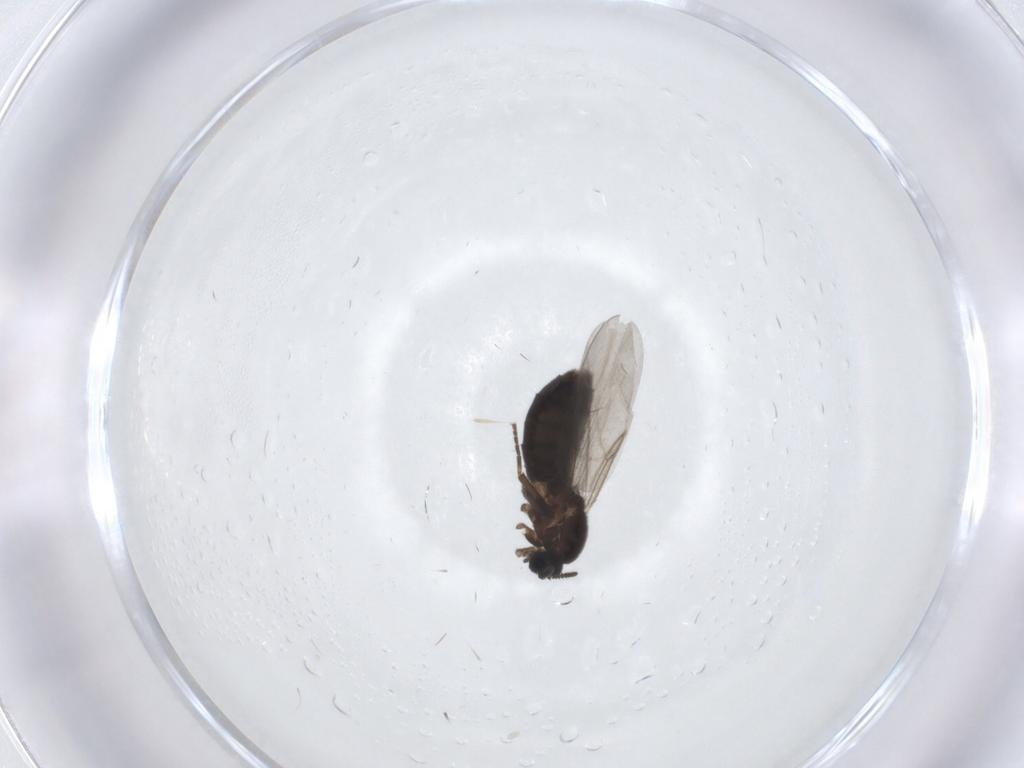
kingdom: Animalia
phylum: Arthropoda
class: Insecta
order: Diptera
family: Scatopsidae
